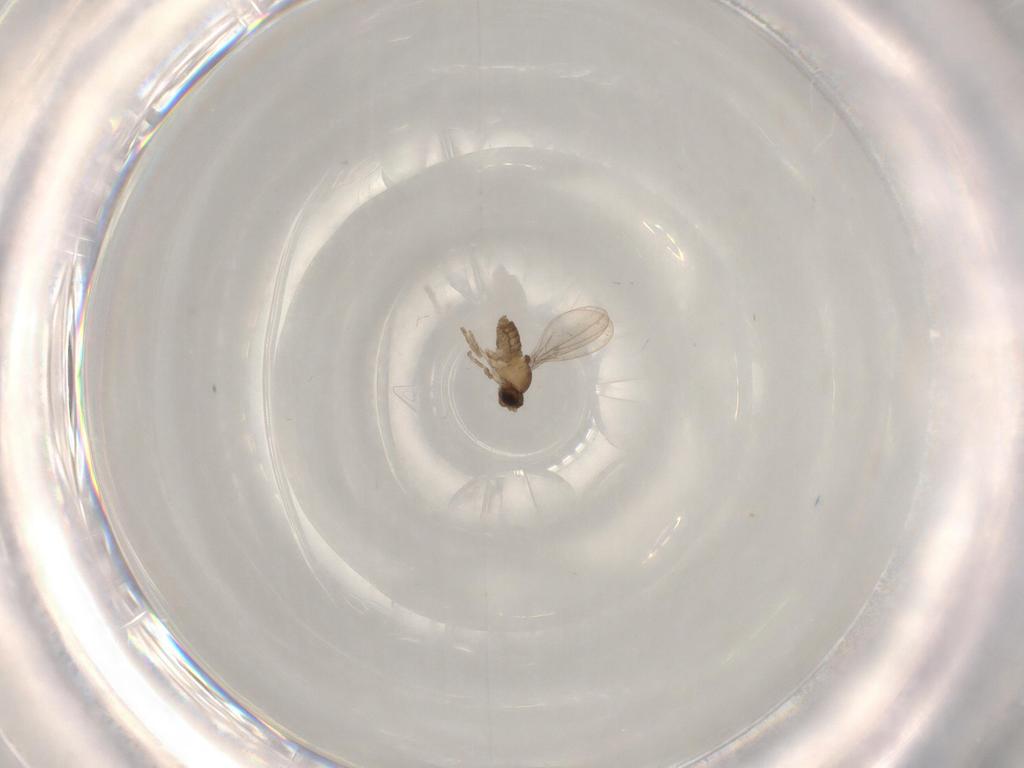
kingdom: Animalia
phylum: Arthropoda
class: Insecta
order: Diptera
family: Cecidomyiidae
